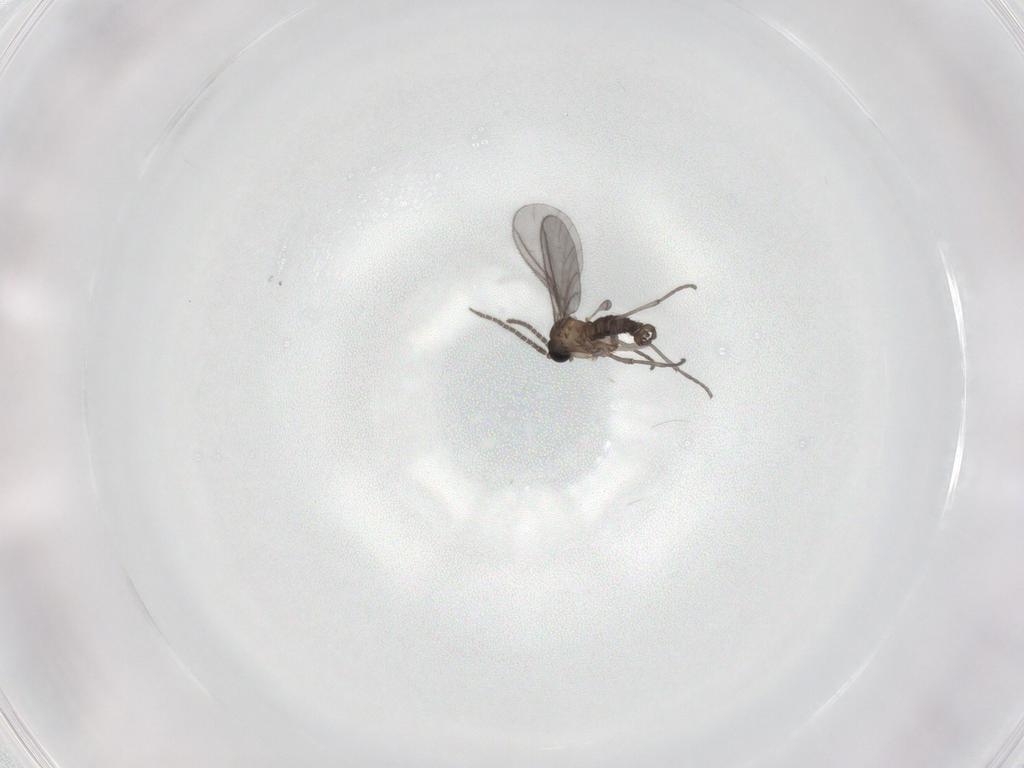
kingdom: Animalia
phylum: Arthropoda
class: Insecta
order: Diptera
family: Sciaridae
